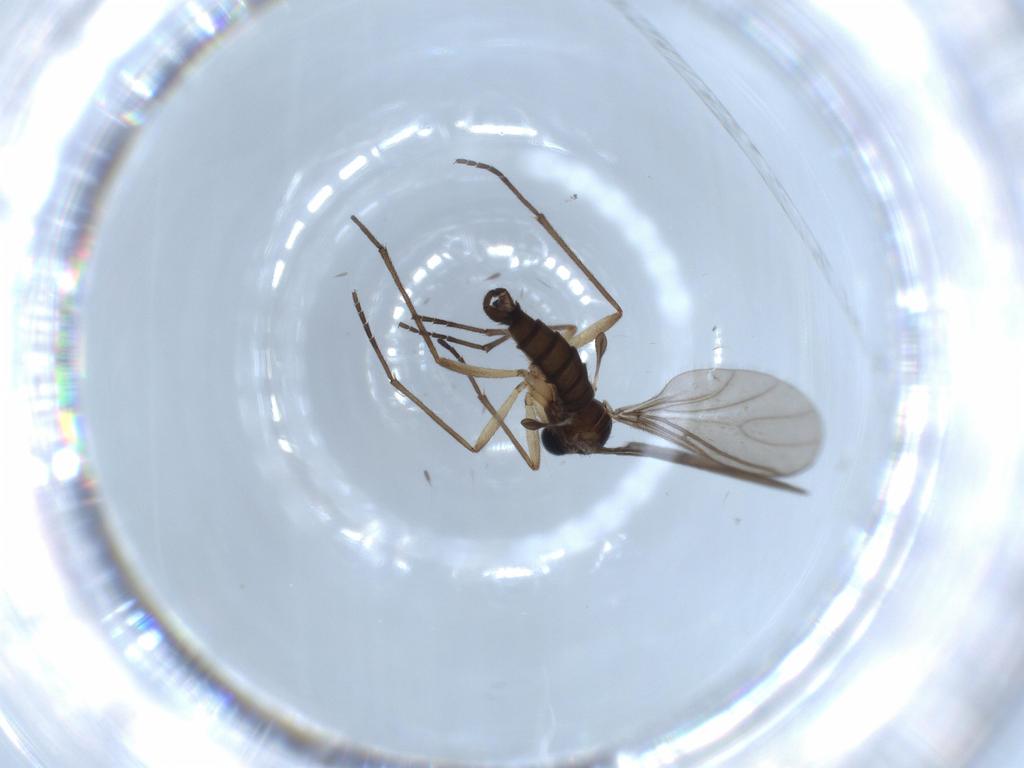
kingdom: Animalia
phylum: Arthropoda
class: Insecta
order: Diptera
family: Sciaridae
